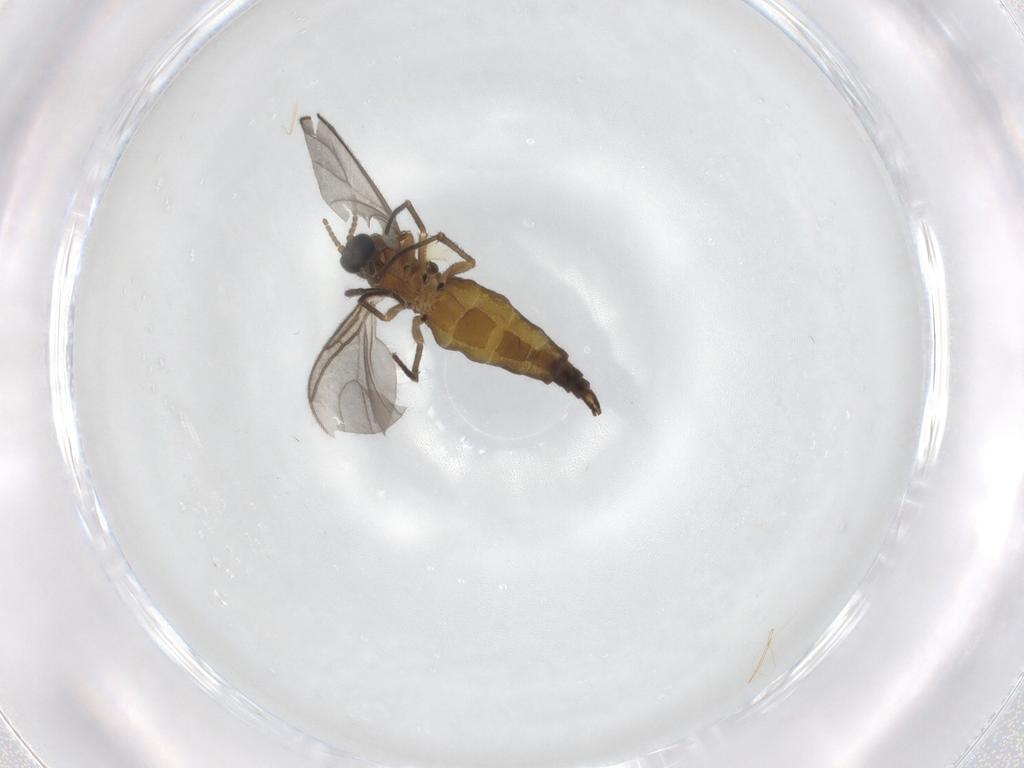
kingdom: Animalia
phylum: Arthropoda
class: Insecta
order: Diptera
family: Sciaridae
